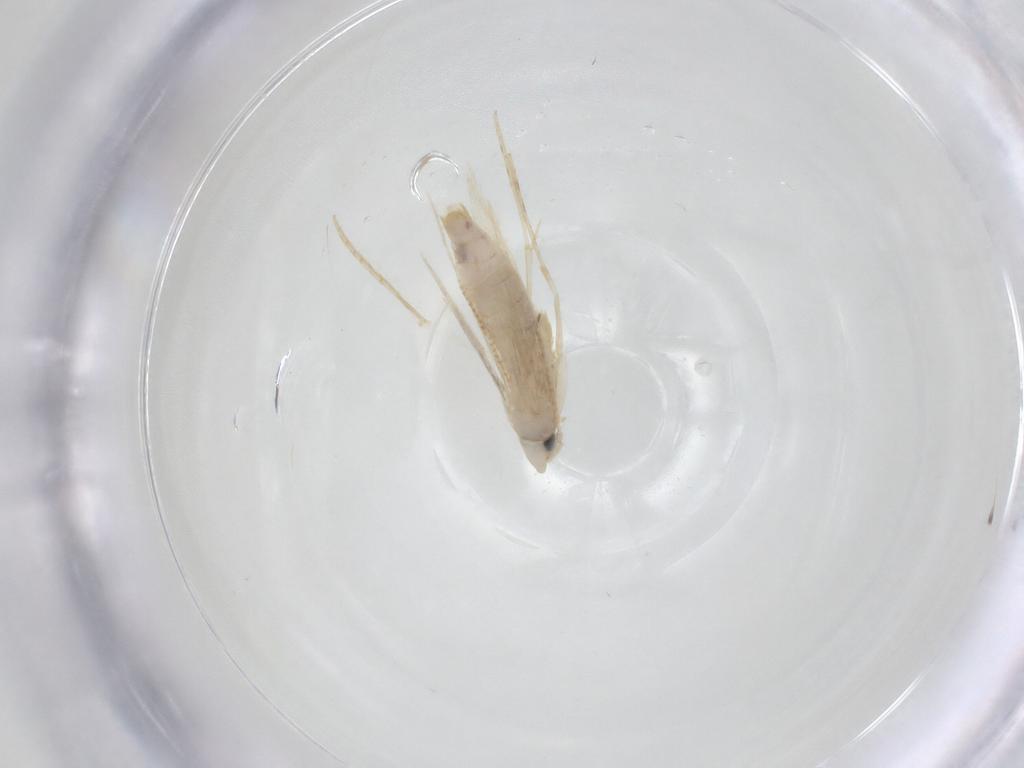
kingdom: Animalia
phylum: Arthropoda
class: Insecta
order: Lepidoptera
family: Tineidae
